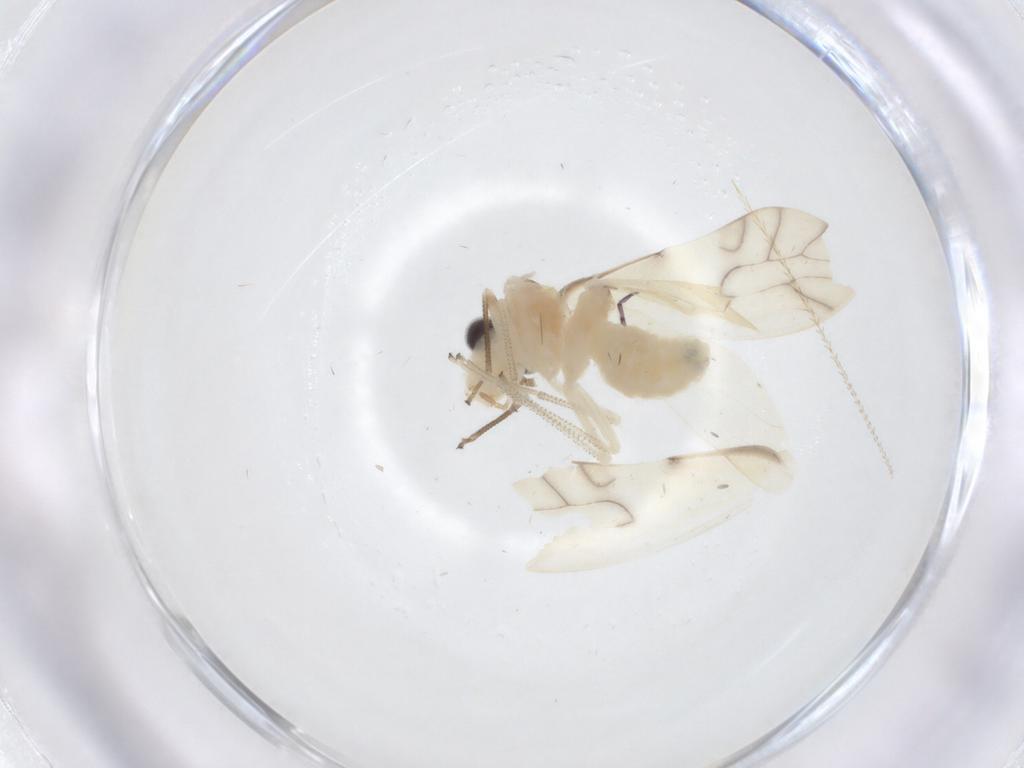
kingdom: Animalia
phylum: Arthropoda
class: Insecta
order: Psocodea
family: Caeciliusidae
